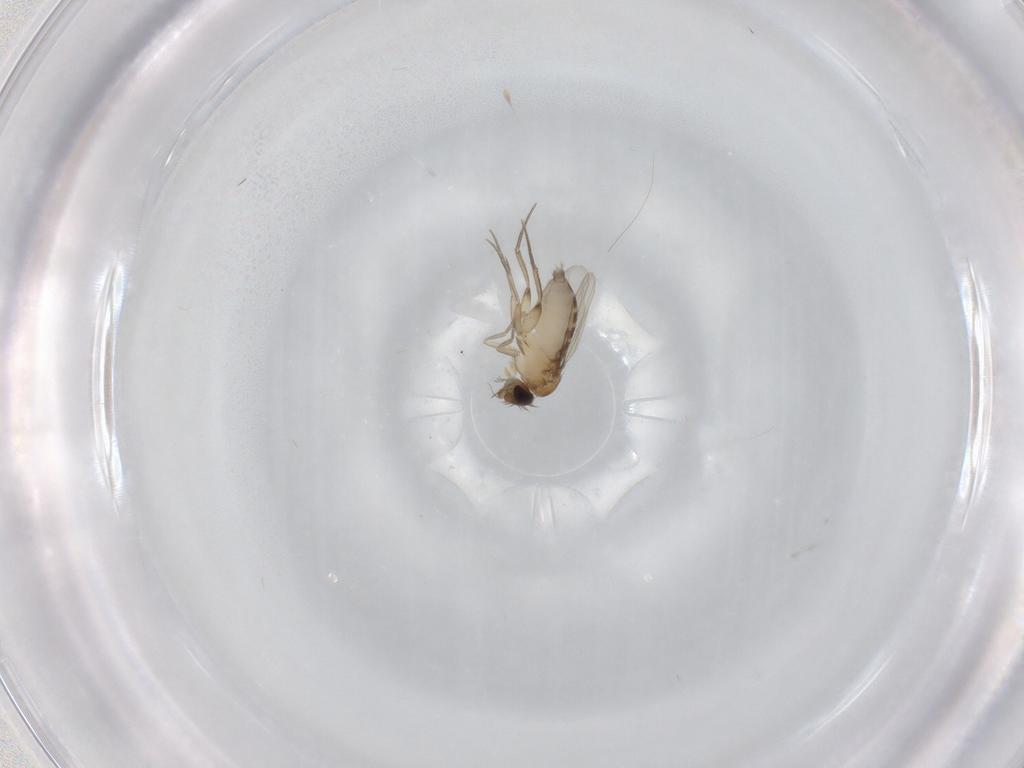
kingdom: Animalia
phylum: Arthropoda
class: Insecta
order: Diptera
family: Phoridae
